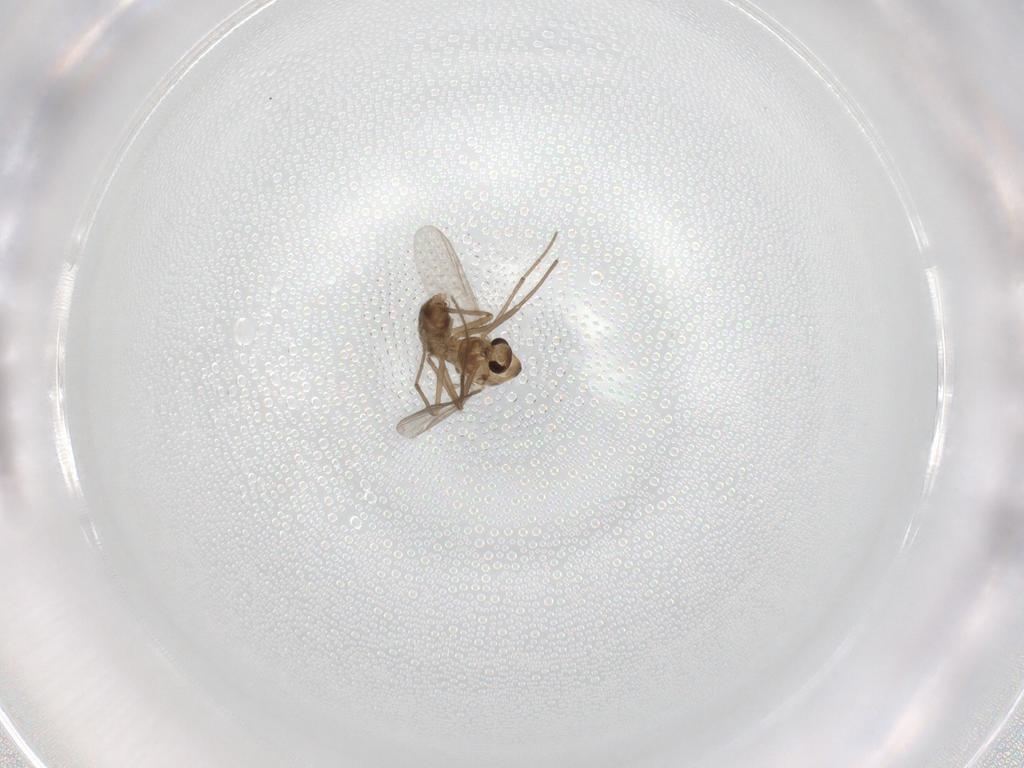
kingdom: Animalia
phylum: Arthropoda
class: Insecta
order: Diptera
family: Chironomidae
